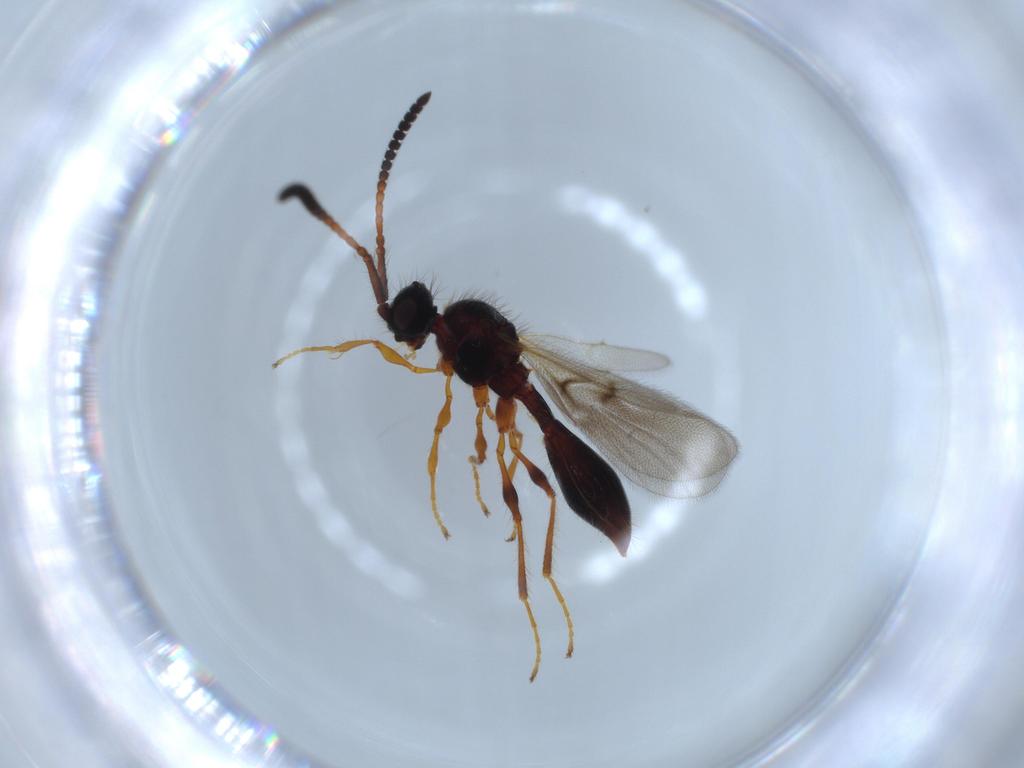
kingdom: Animalia
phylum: Arthropoda
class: Insecta
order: Hymenoptera
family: Diapriidae
